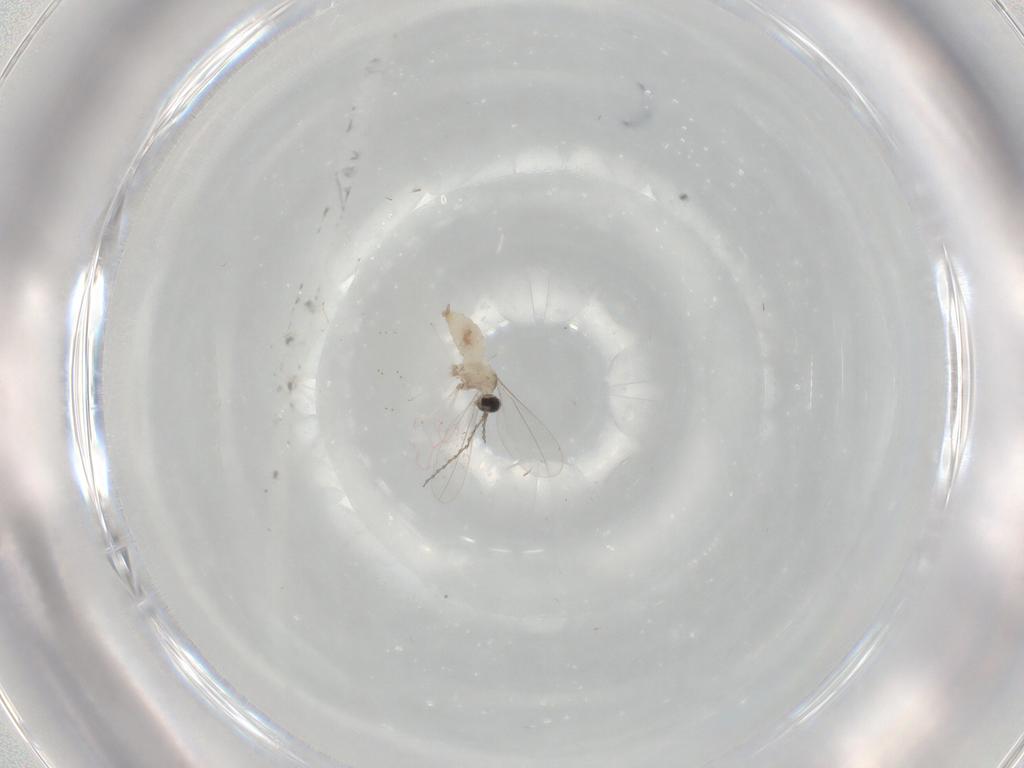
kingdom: Animalia
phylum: Arthropoda
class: Insecta
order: Diptera
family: Cecidomyiidae
